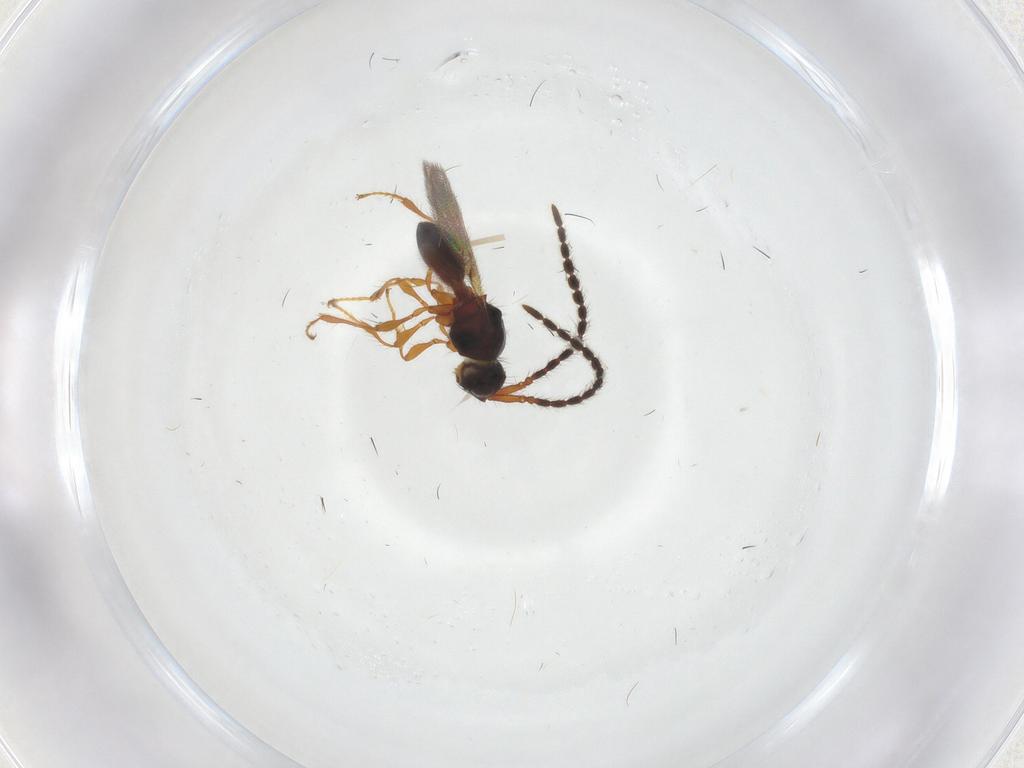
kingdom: Animalia
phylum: Arthropoda
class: Insecta
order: Hymenoptera
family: Diapriidae
